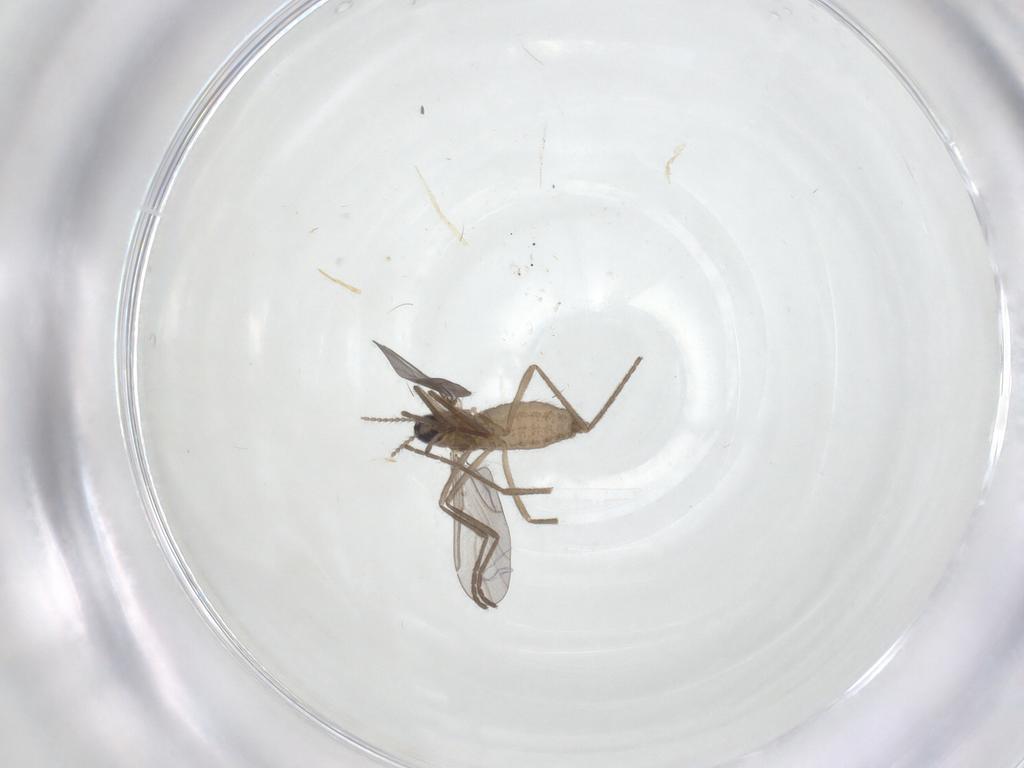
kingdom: Animalia
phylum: Arthropoda
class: Insecta
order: Diptera
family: Cecidomyiidae
